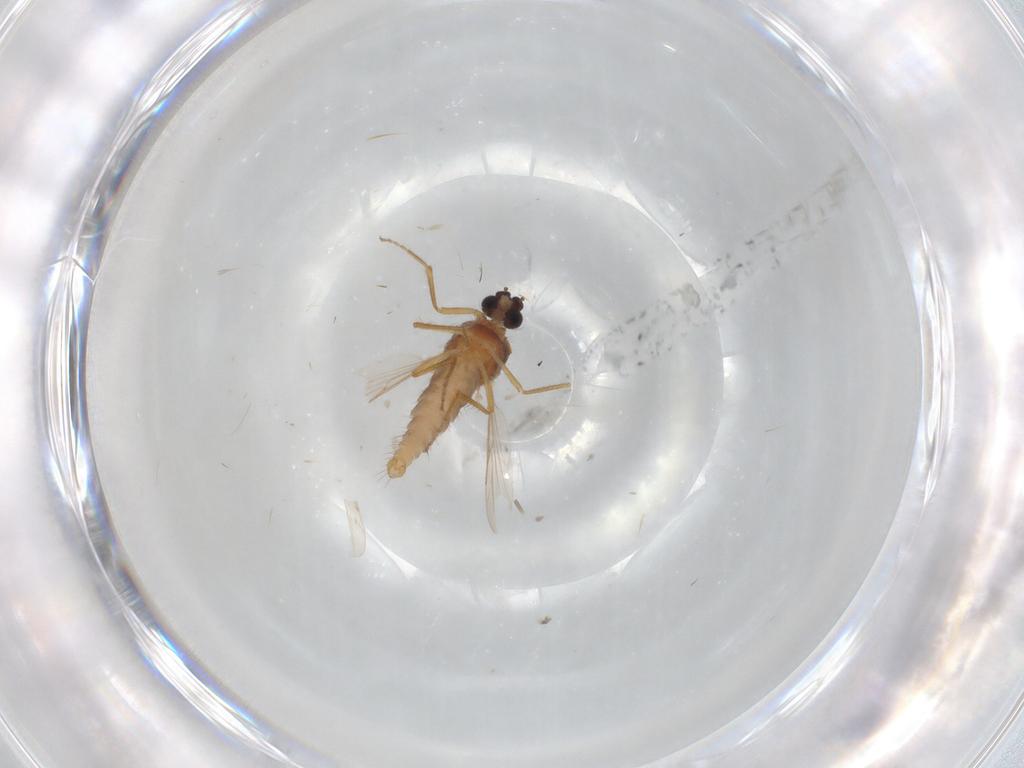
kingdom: Animalia
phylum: Arthropoda
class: Insecta
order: Diptera
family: Ceratopogonidae
